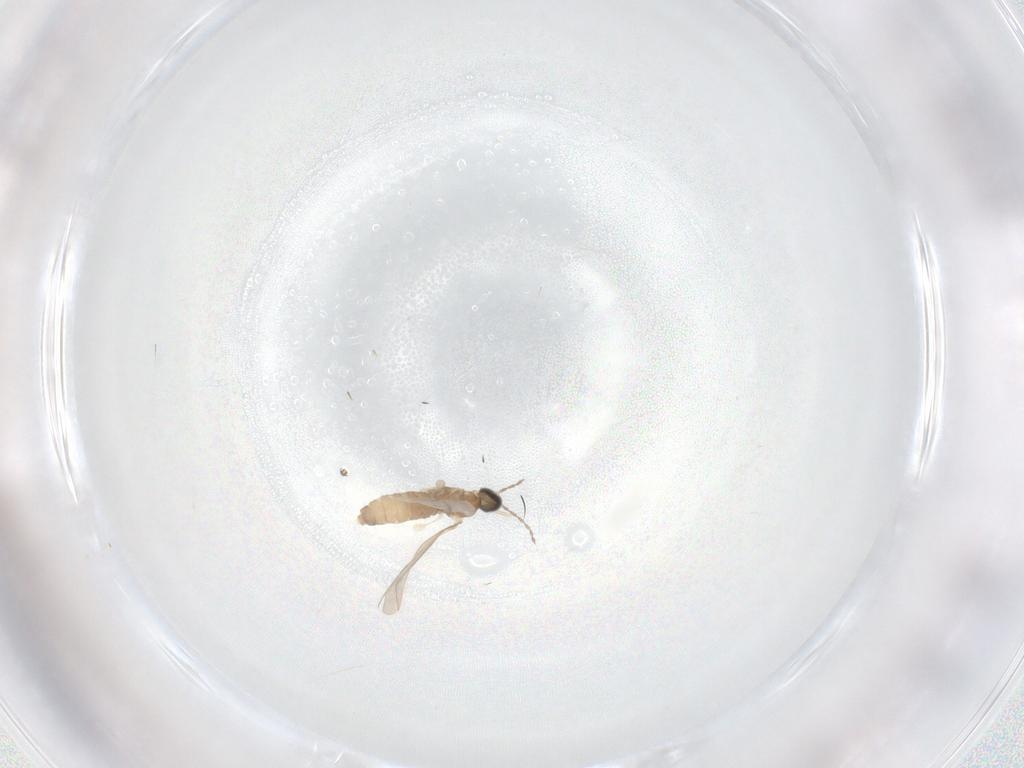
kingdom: Animalia
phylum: Arthropoda
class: Insecta
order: Diptera
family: Cecidomyiidae
